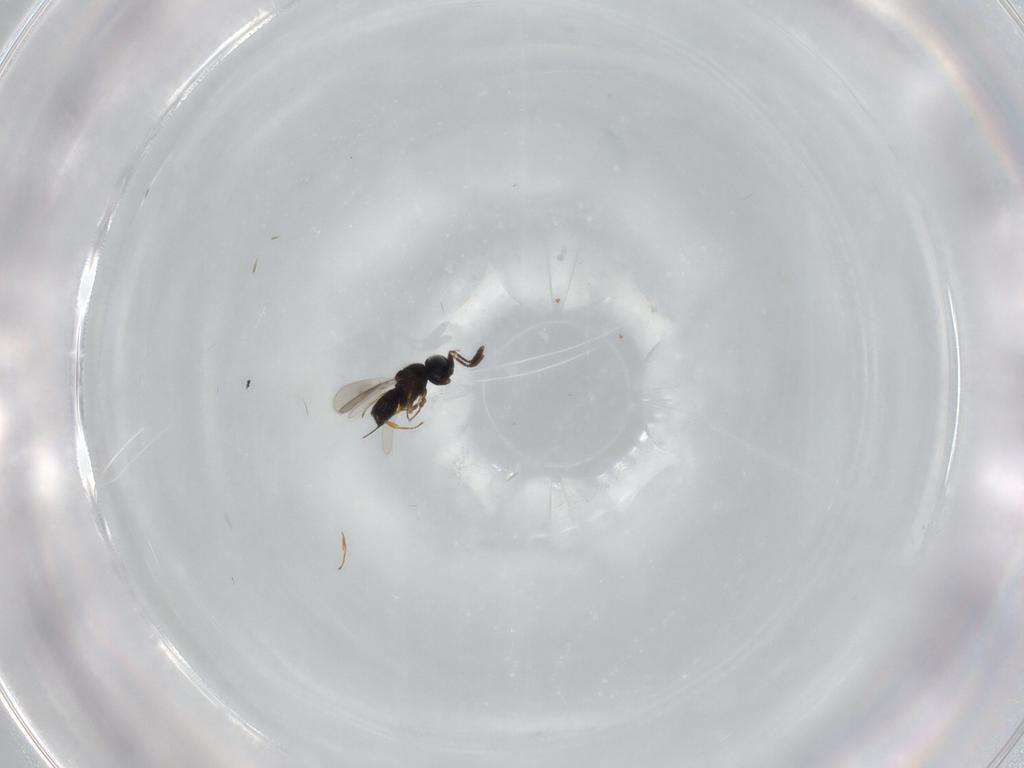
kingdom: Animalia
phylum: Arthropoda
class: Insecta
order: Hymenoptera
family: Scelionidae
